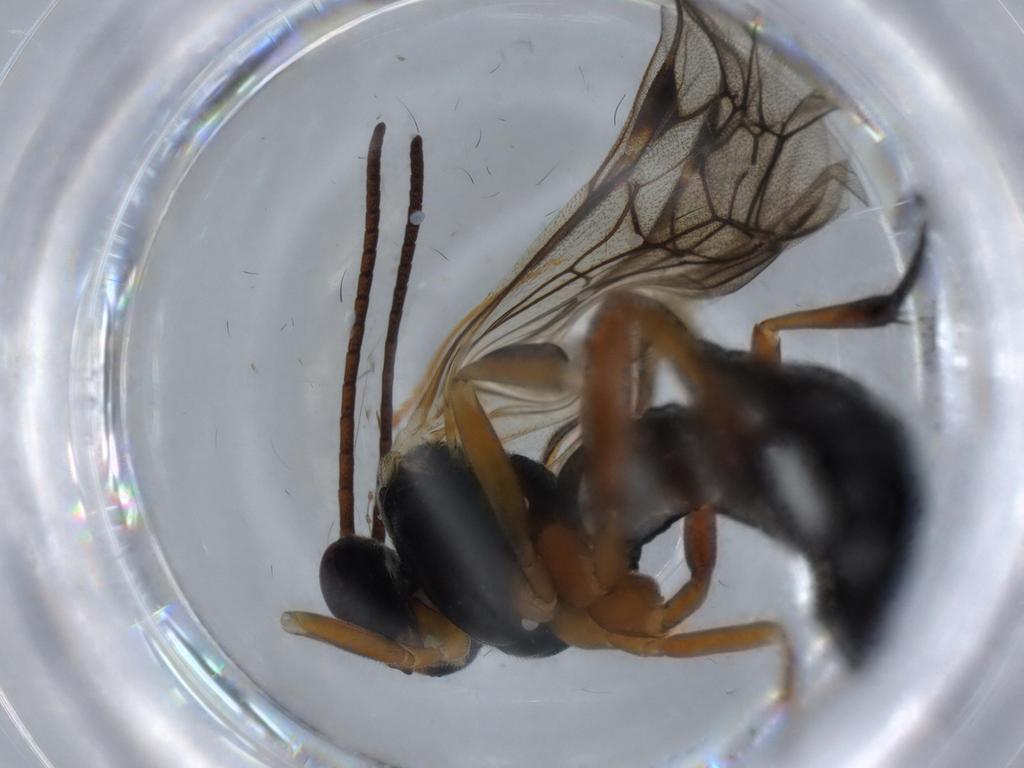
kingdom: Animalia
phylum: Arthropoda
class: Insecta
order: Hymenoptera
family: Ichneumonidae
